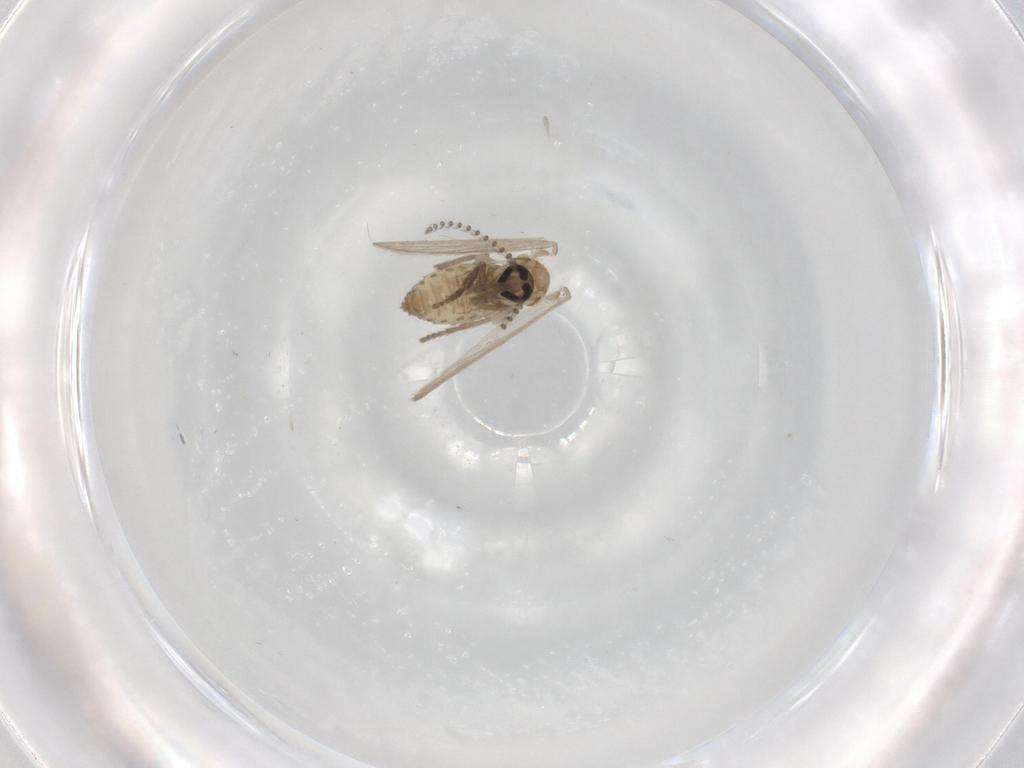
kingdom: Animalia
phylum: Arthropoda
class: Insecta
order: Diptera
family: Psychodidae
